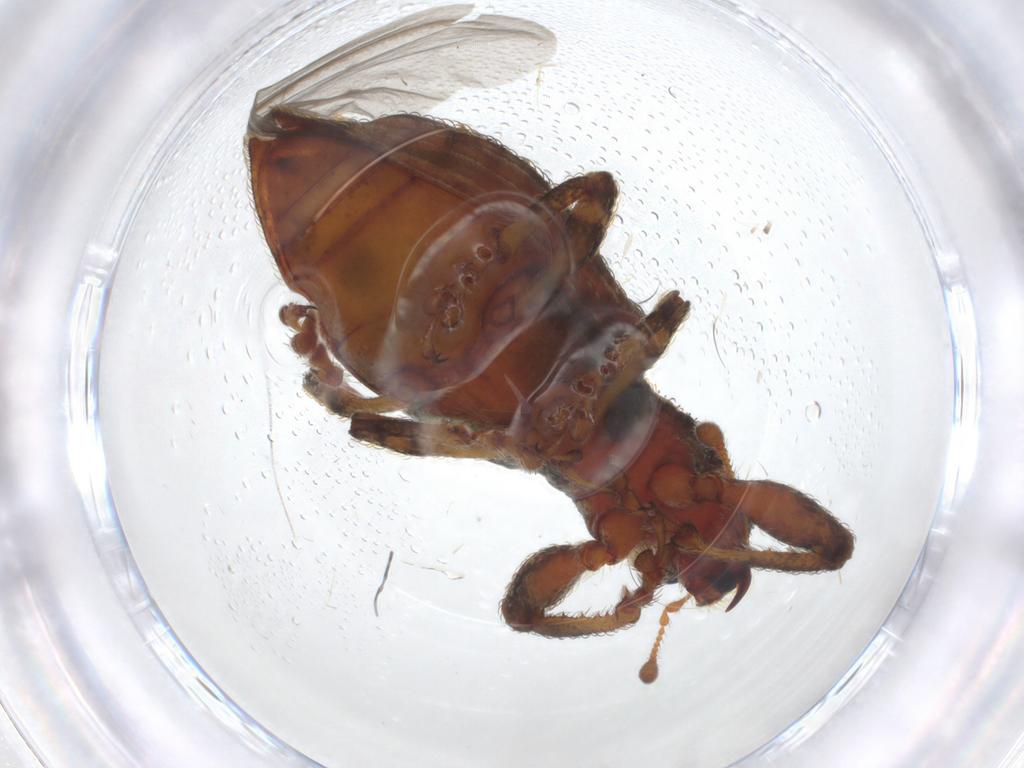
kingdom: Animalia
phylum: Arthropoda
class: Insecta
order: Coleoptera
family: Curculionidae
